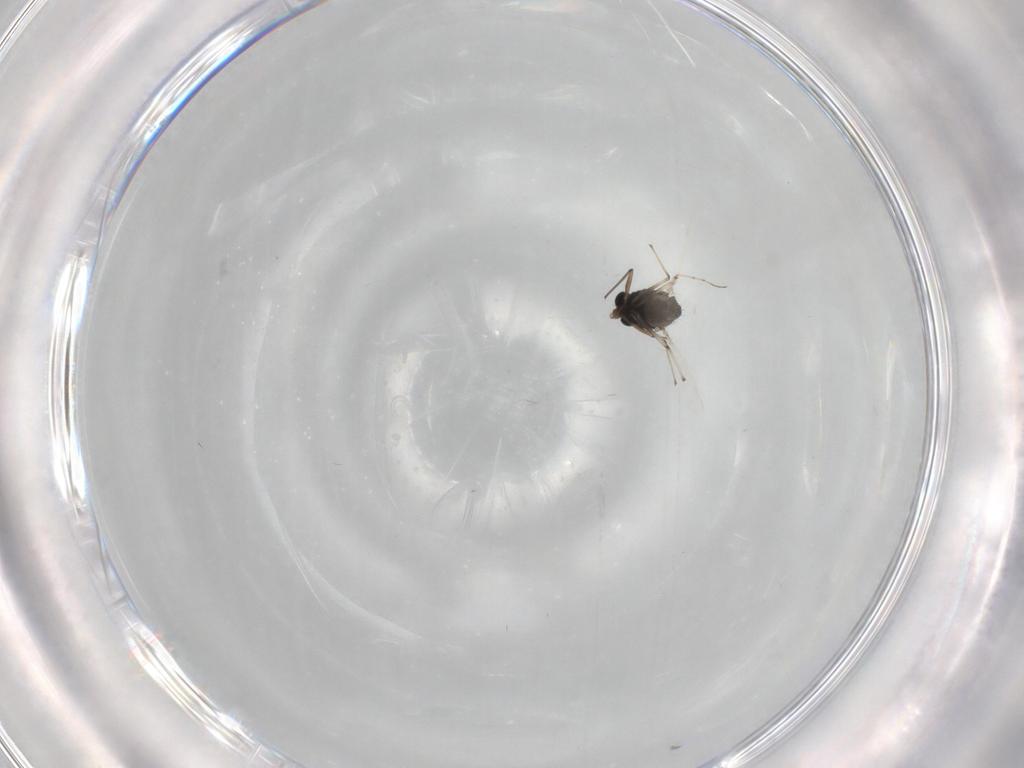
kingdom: Animalia
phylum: Arthropoda
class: Insecta
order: Diptera
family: Chironomidae
